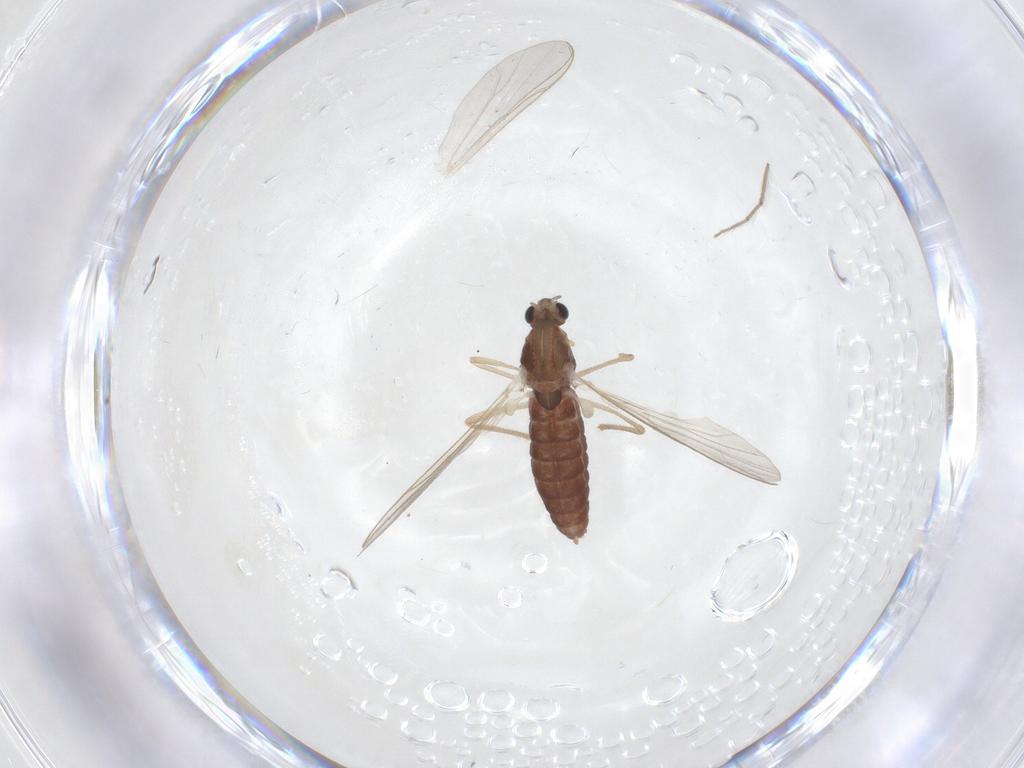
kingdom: Animalia
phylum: Arthropoda
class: Insecta
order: Diptera
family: Chironomidae
